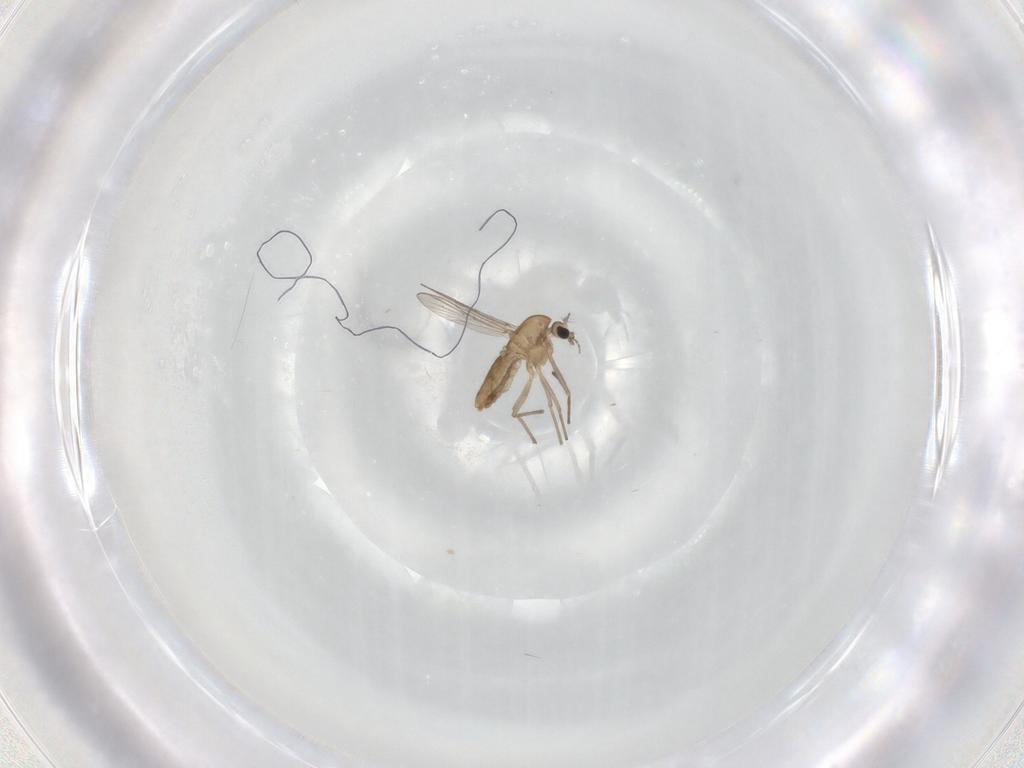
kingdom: Animalia
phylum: Arthropoda
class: Insecta
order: Diptera
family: Chironomidae
